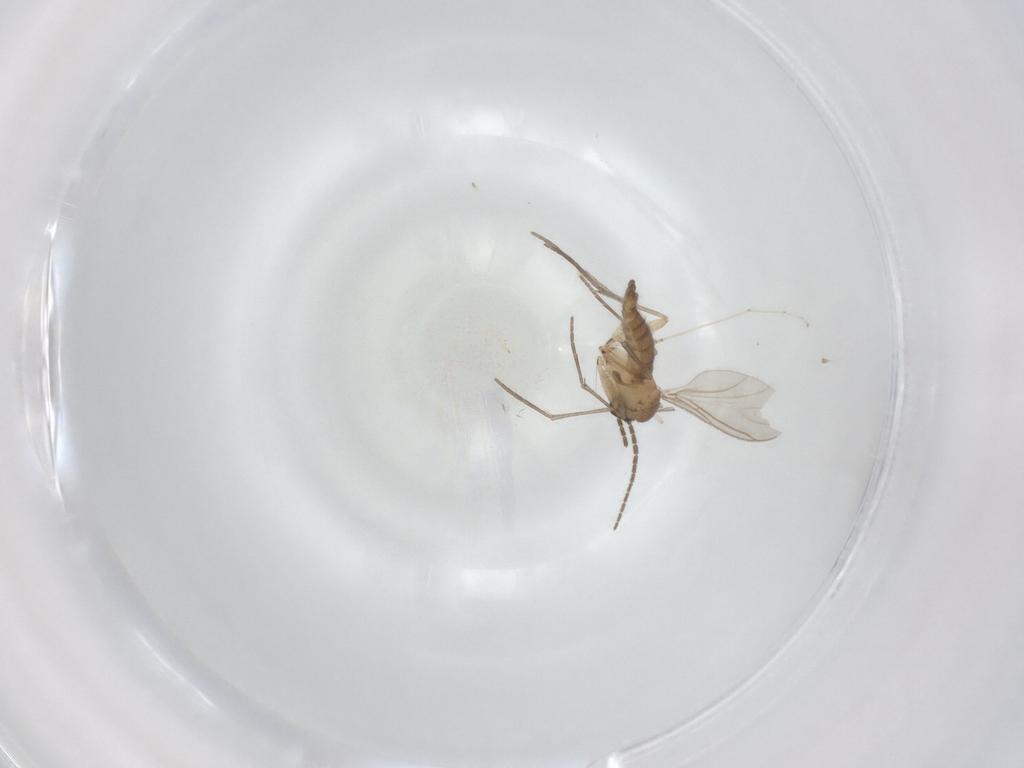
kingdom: Animalia
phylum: Arthropoda
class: Insecta
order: Diptera
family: Sciaridae
